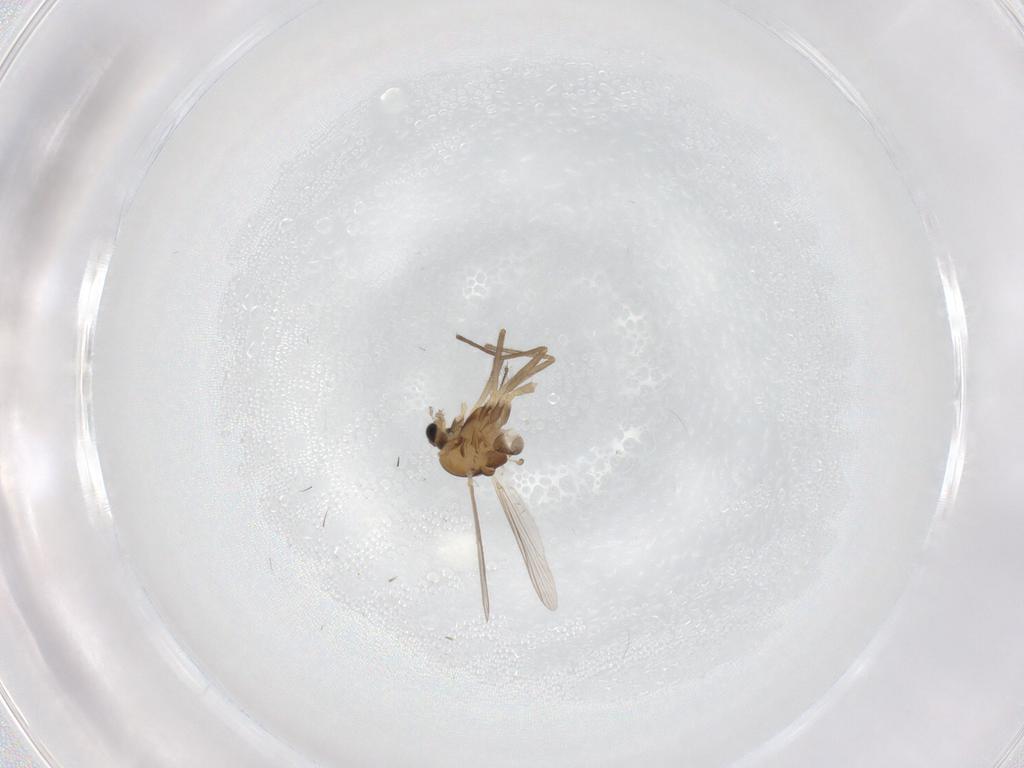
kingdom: Animalia
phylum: Arthropoda
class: Insecta
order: Diptera
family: Chironomidae
